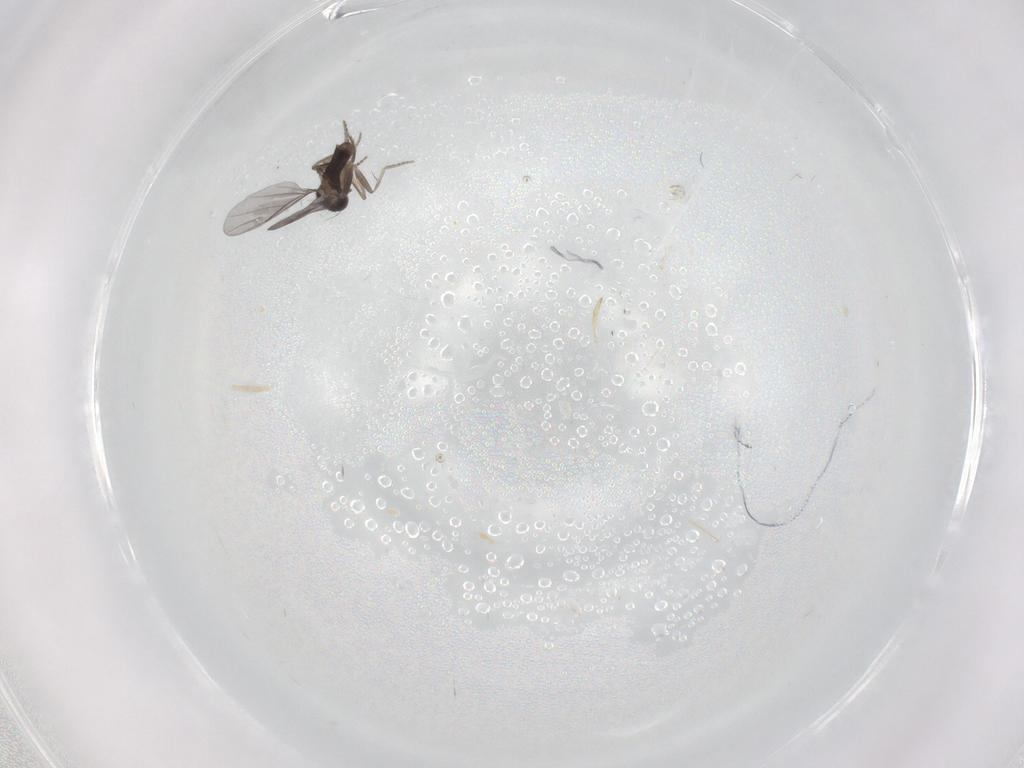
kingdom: Animalia
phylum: Arthropoda
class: Insecta
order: Diptera
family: Phoridae
